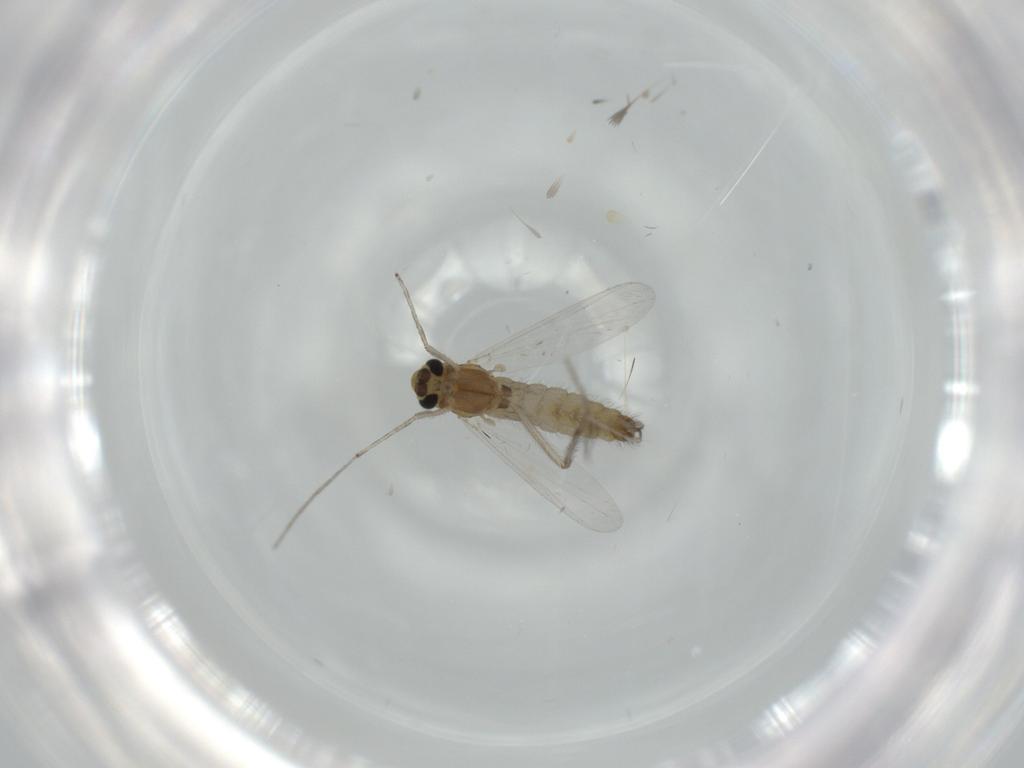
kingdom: Animalia
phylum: Arthropoda
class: Insecta
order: Diptera
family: Chironomidae
